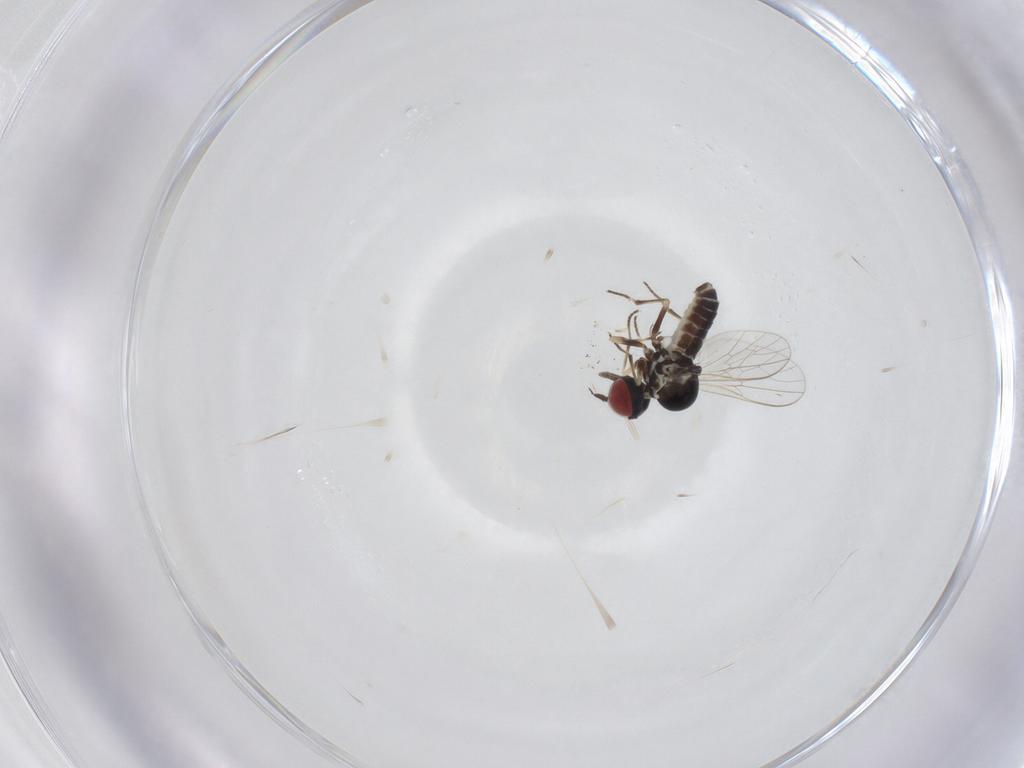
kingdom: Animalia
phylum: Arthropoda
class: Insecta
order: Diptera
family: Mythicomyiidae
